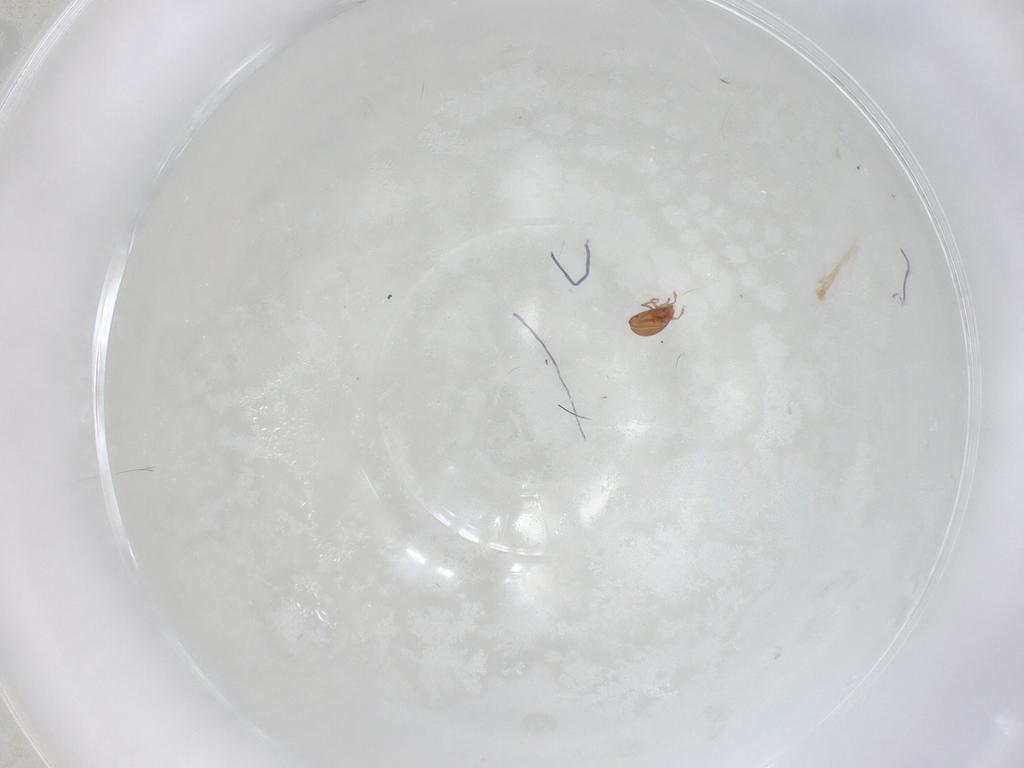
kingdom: Animalia
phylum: Arthropoda
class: Arachnida
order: Sarcoptiformes
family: Scheloribatidae
